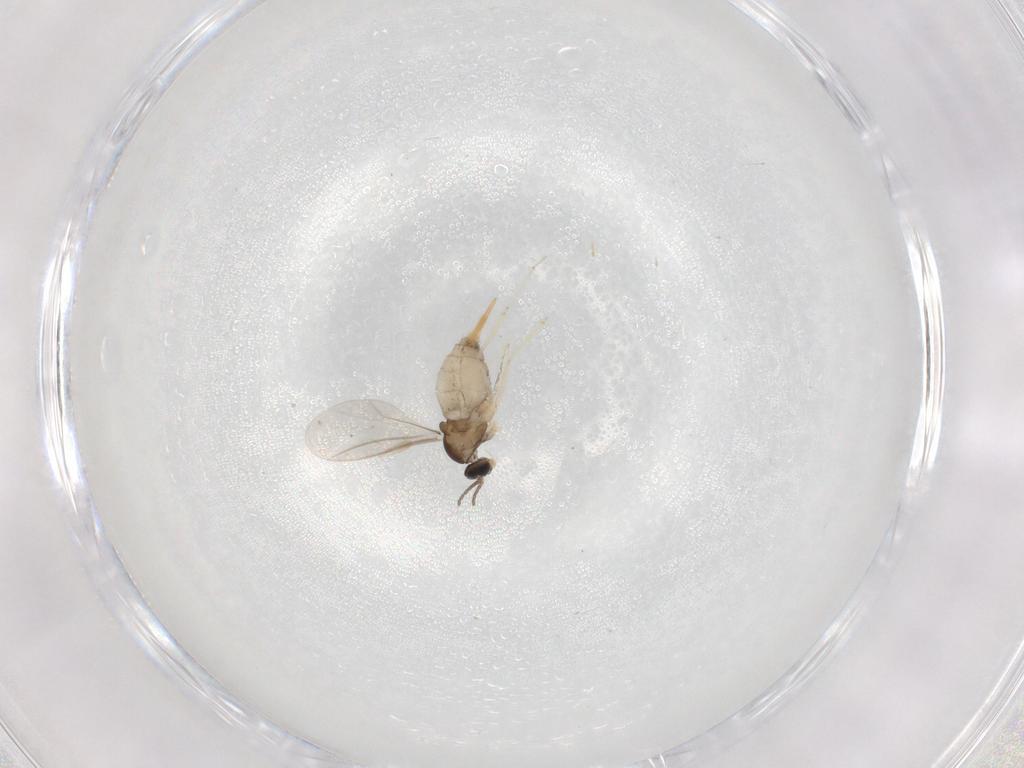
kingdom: Animalia
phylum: Arthropoda
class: Insecta
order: Diptera
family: Cecidomyiidae
